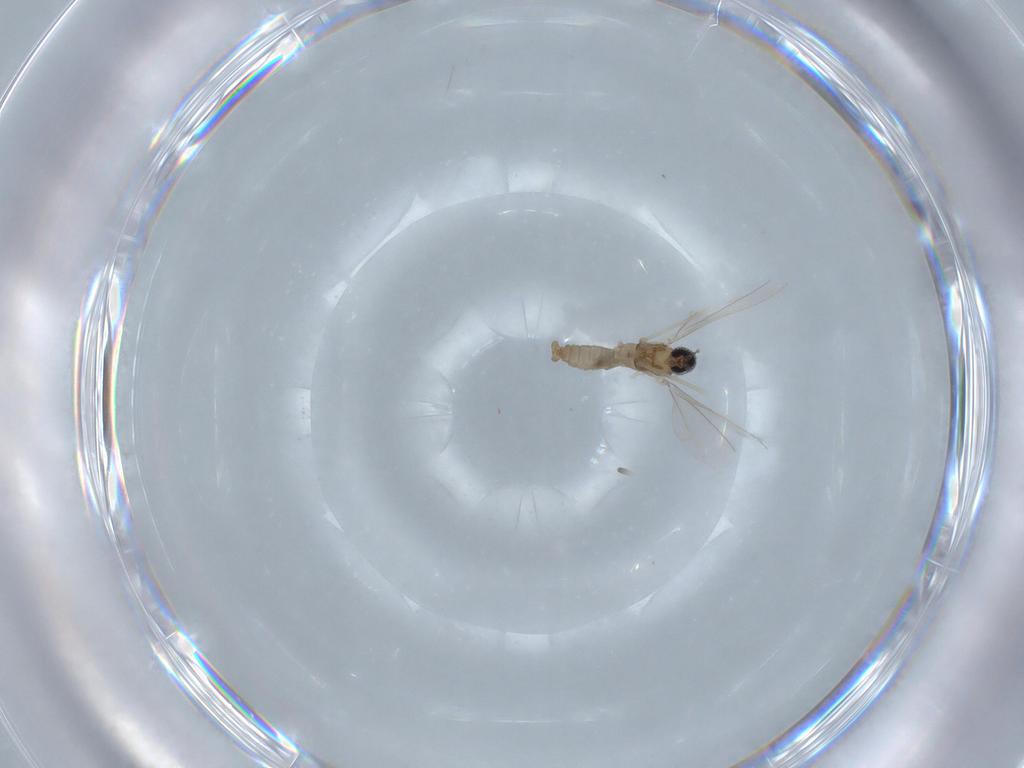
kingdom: Animalia
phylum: Arthropoda
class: Insecta
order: Diptera
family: Cecidomyiidae
